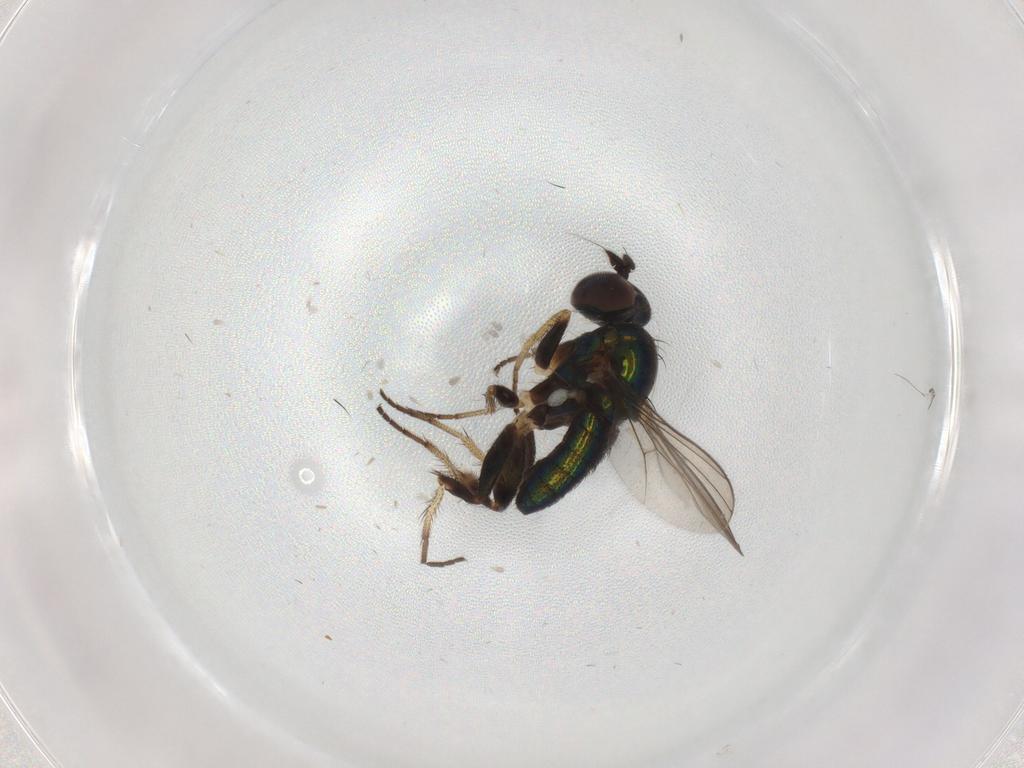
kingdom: Animalia
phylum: Arthropoda
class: Insecta
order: Diptera
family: Dolichopodidae
